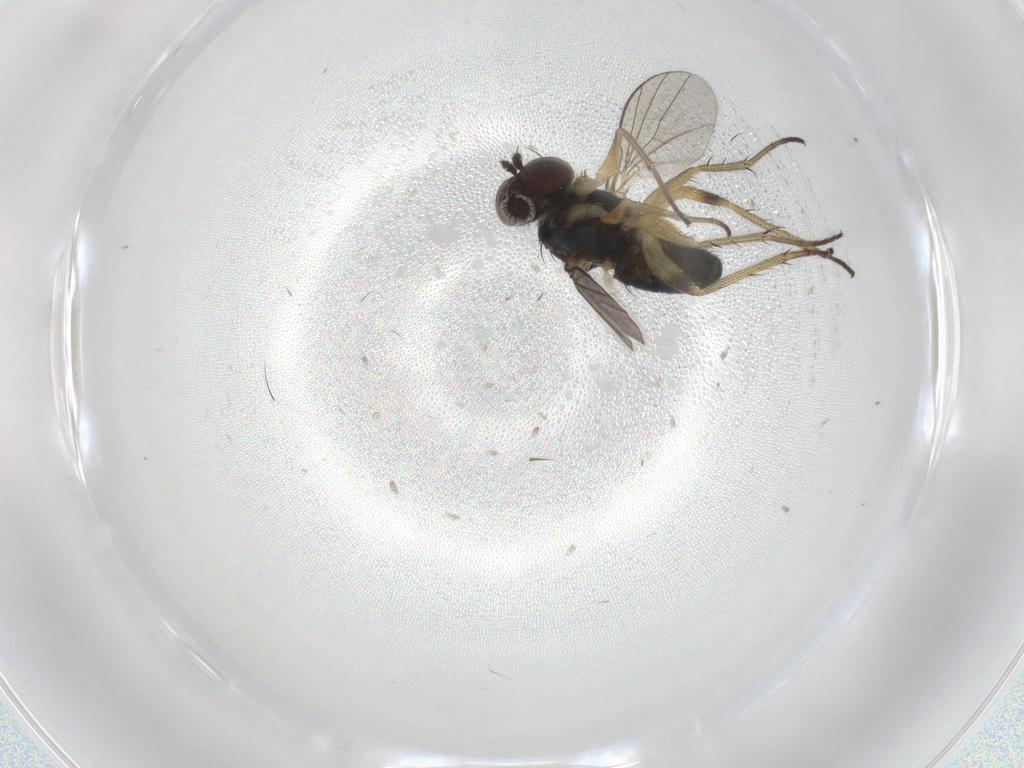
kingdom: Animalia
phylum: Arthropoda
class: Insecta
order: Diptera
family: Dolichopodidae
